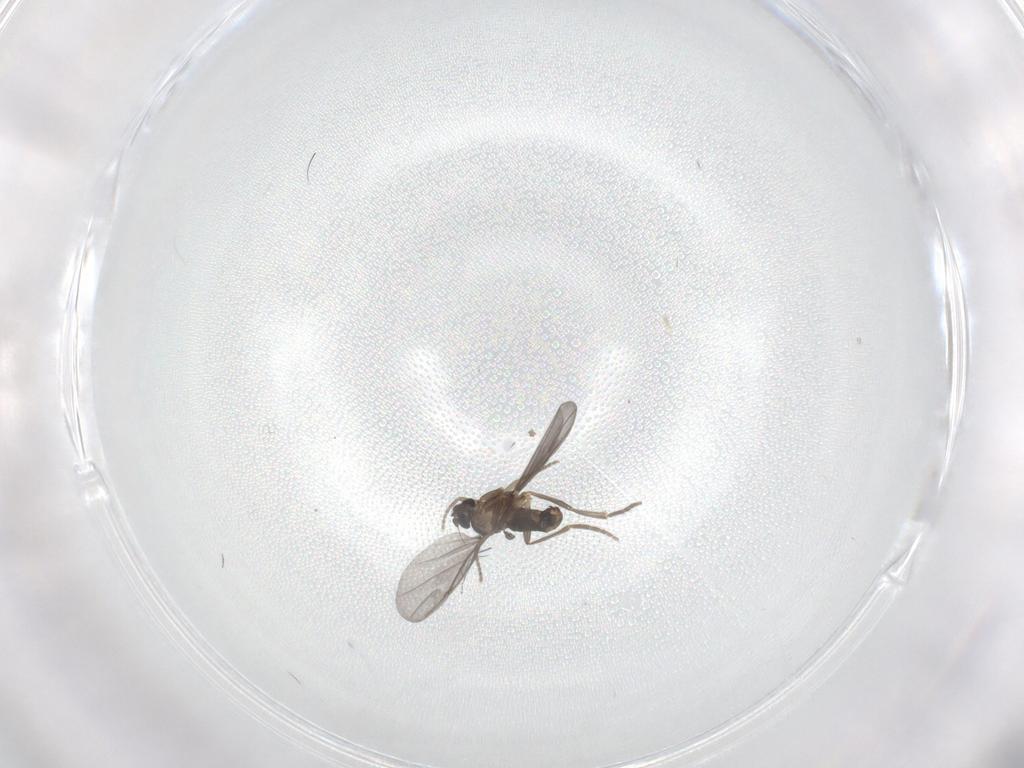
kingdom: Animalia
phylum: Arthropoda
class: Insecta
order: Diptera
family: Phoridae
